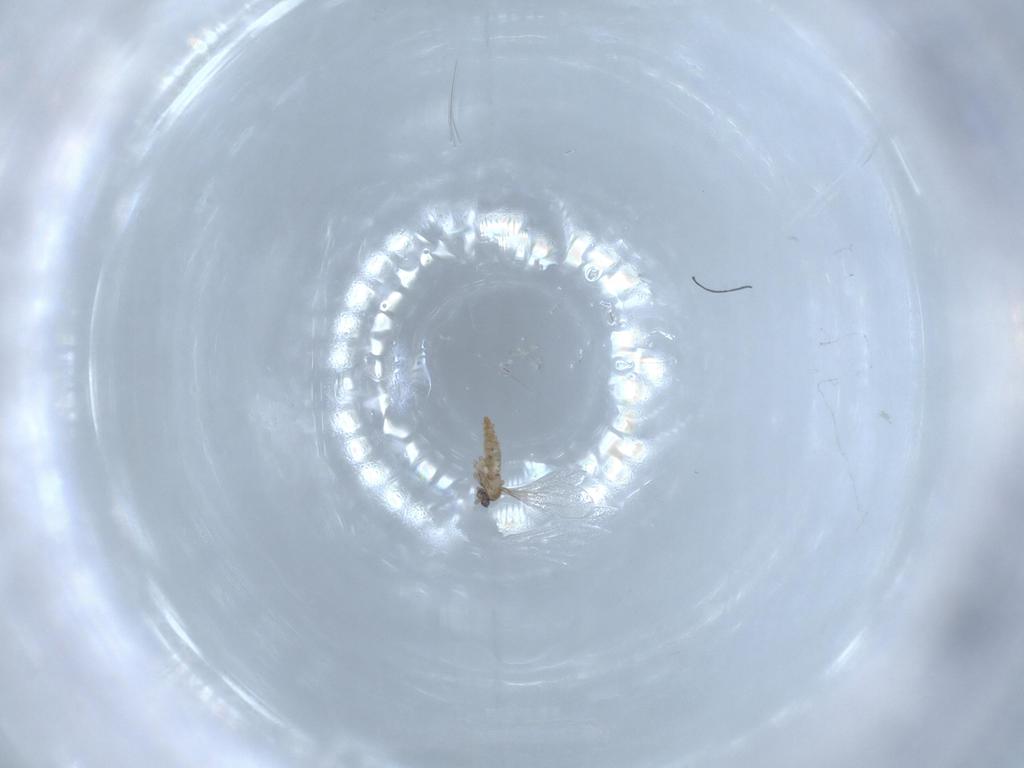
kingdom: Animalia
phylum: Arthropoda
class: Insecta
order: Diptera
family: Cecidomyiidae
